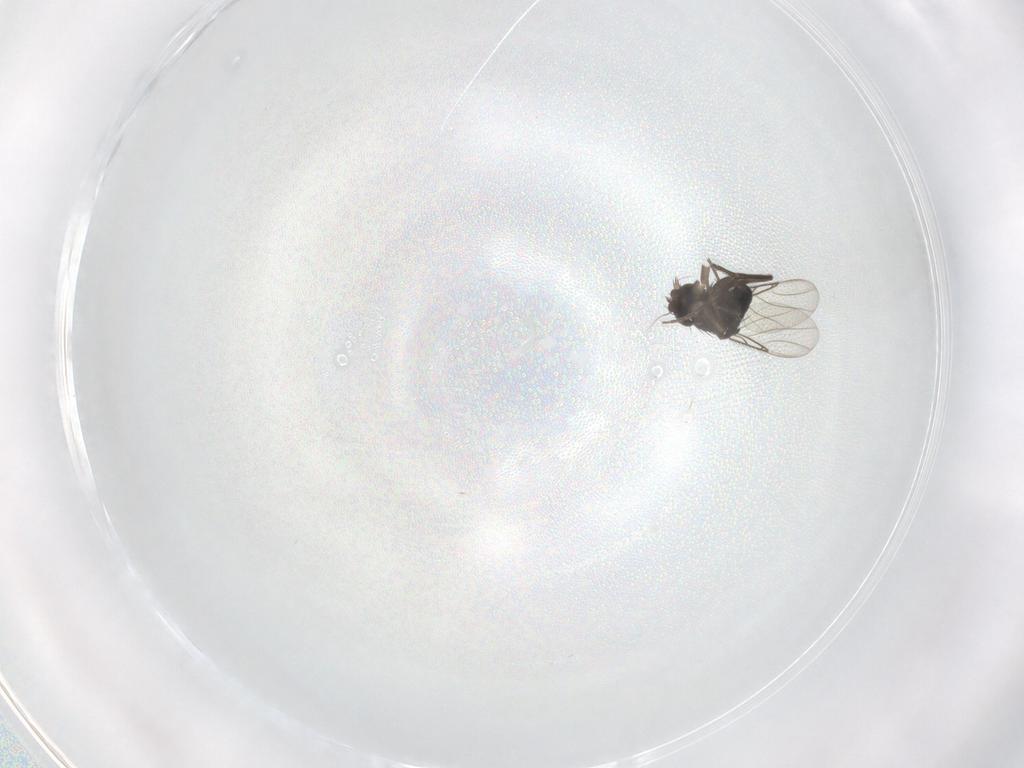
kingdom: Animalia
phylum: Arthropoda
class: Insecta
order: Diptera
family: Phoridae
